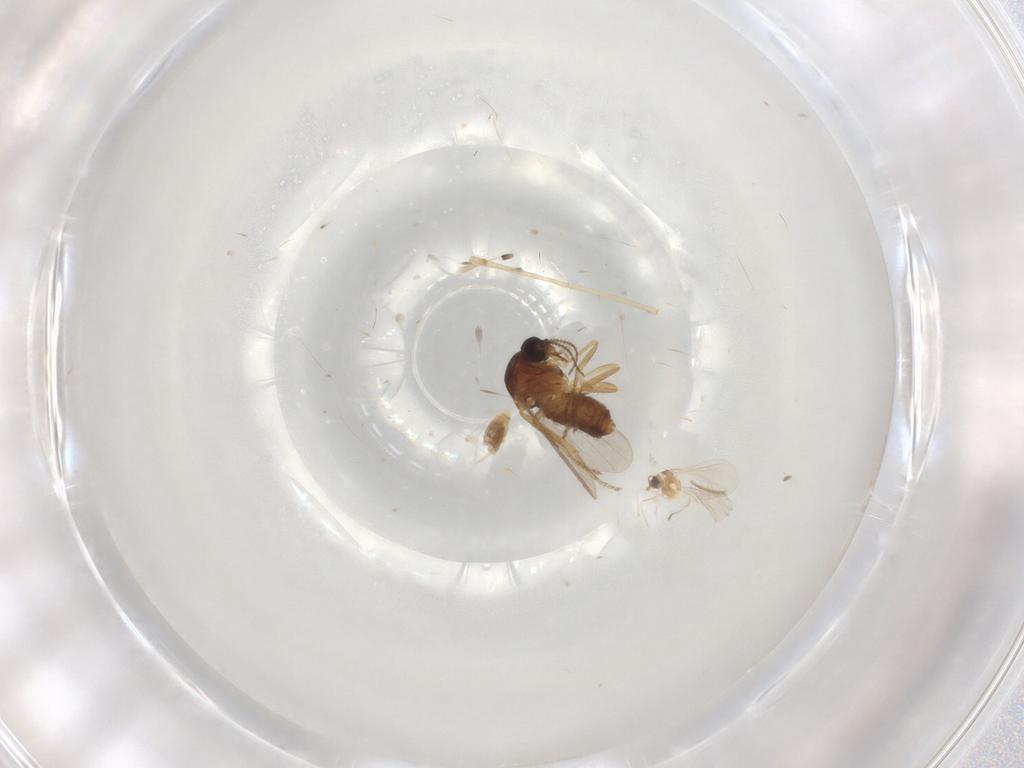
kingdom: Animalia
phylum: Arthropoda
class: Insecta
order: Diptera
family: Cecidomyiidae
